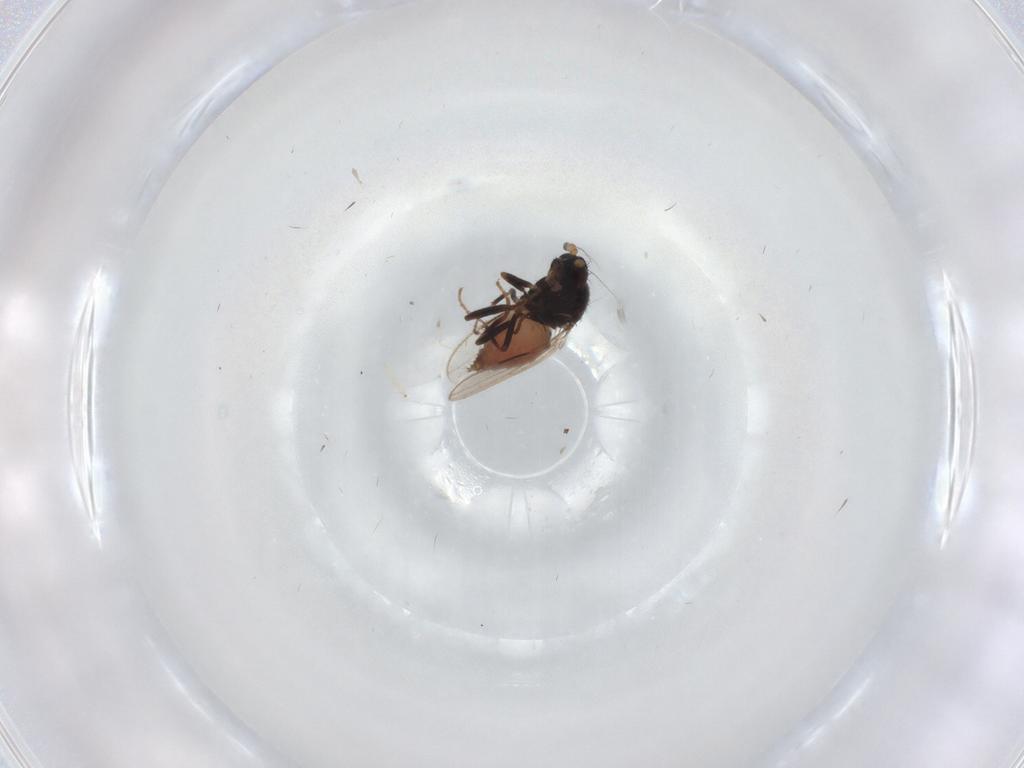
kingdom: Animalia
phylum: Arthropoda
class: Insecta
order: Diptera
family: Sphaeroceridae
